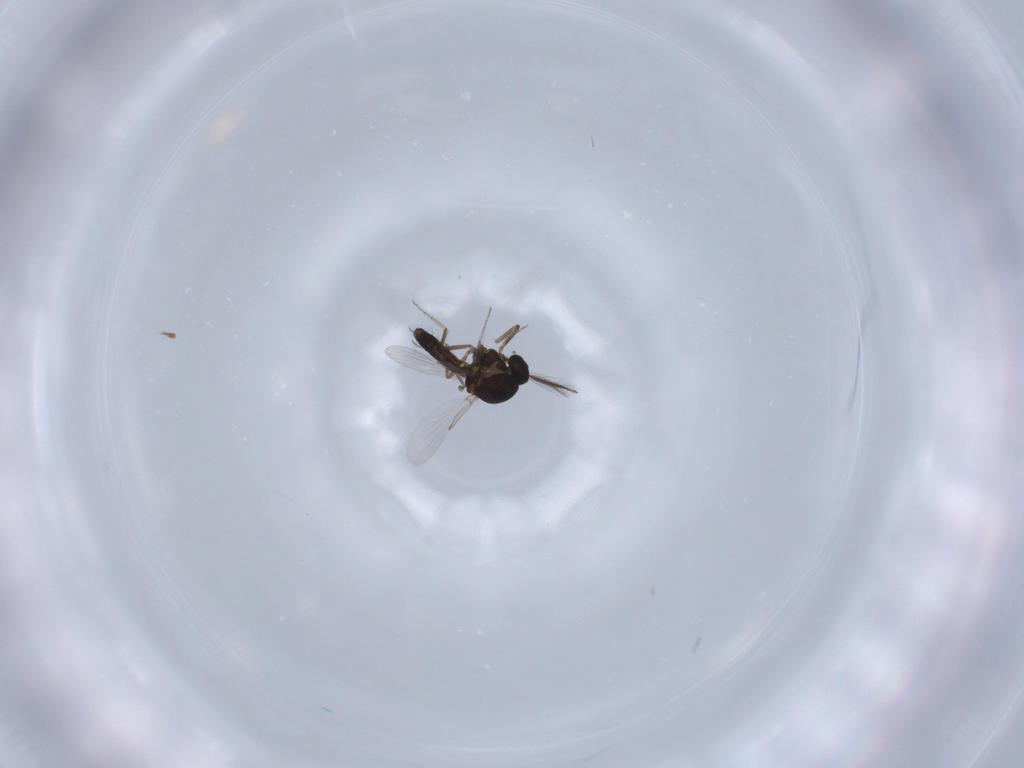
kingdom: Animalia
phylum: Arthropoda
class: Insecta
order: Diptera
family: Ceratopogonidae
